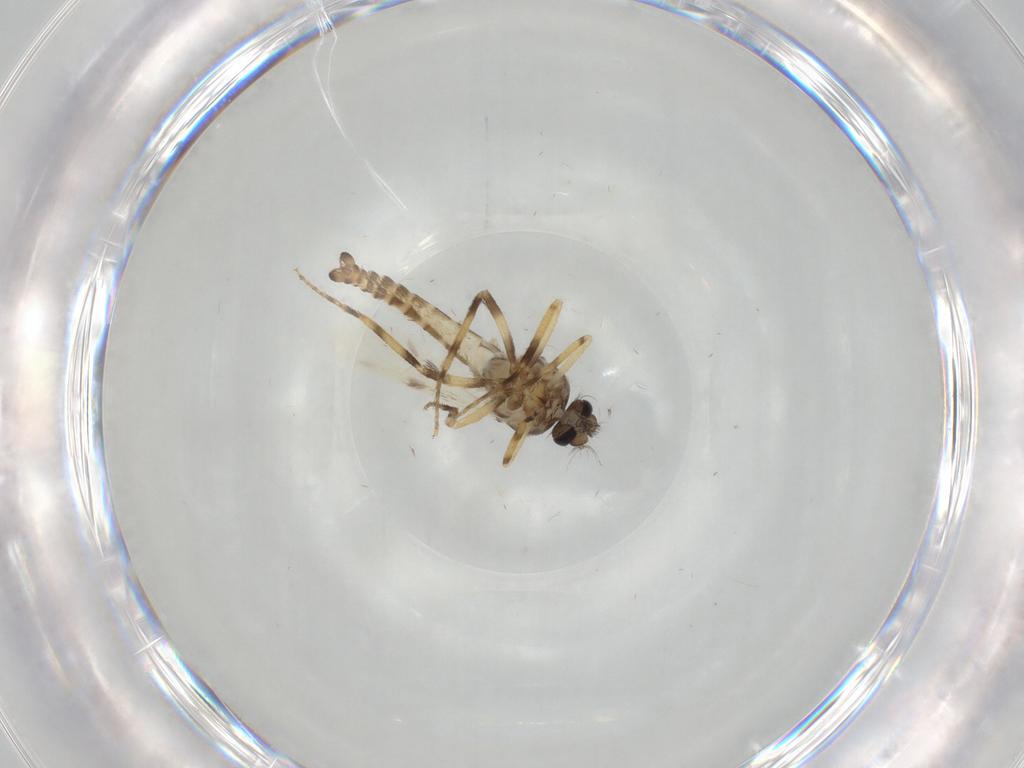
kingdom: Animalia
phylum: Arthropoda
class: Insecta
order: Diptera
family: Ceratopogonidae
